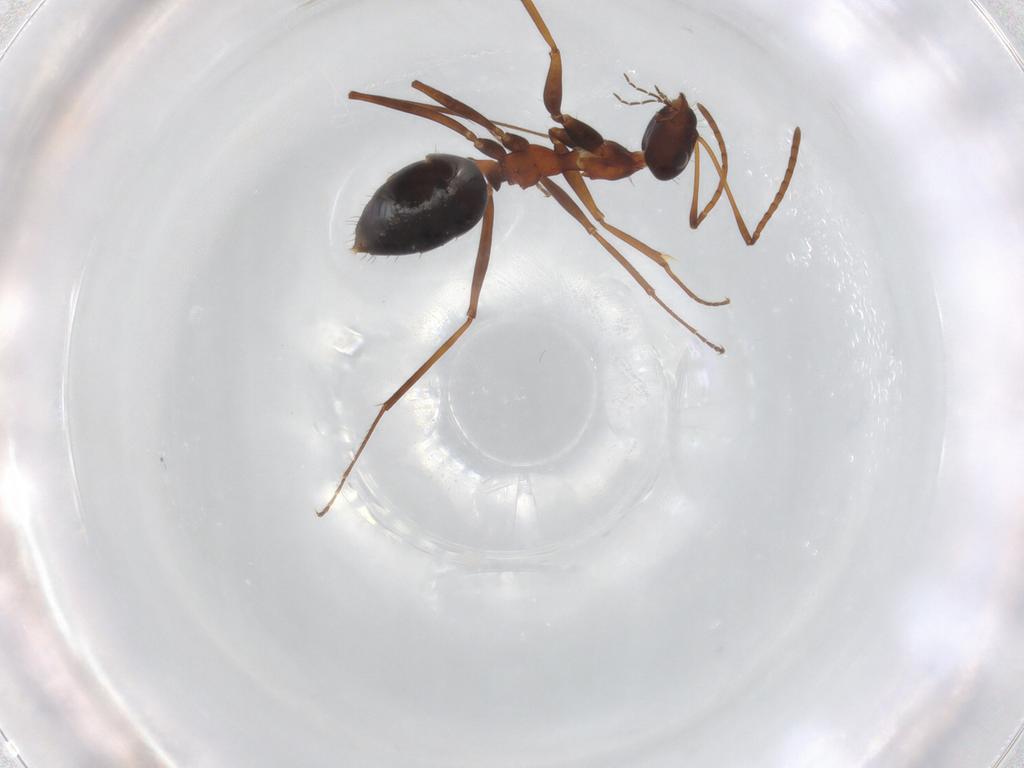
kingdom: Animalia
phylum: Arthropoda
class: Insecta
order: Hymenoptera
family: Formicidae
